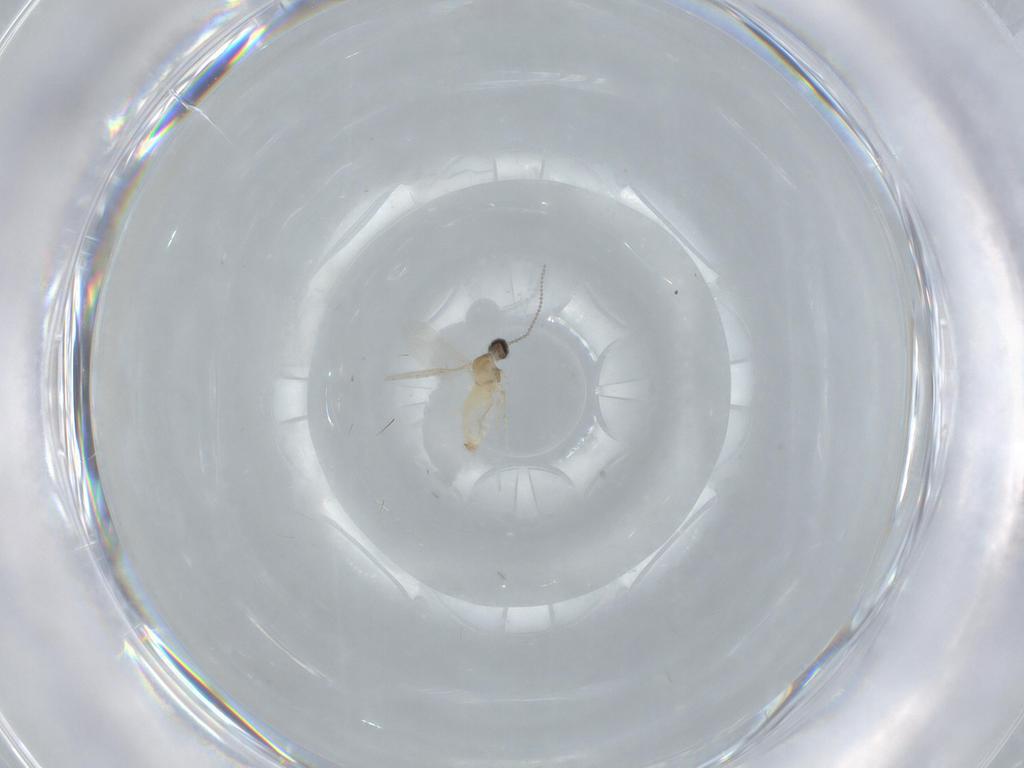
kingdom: Animalia
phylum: Arthropoda
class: Insecta
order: Diptera
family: Cecidomyiidae
